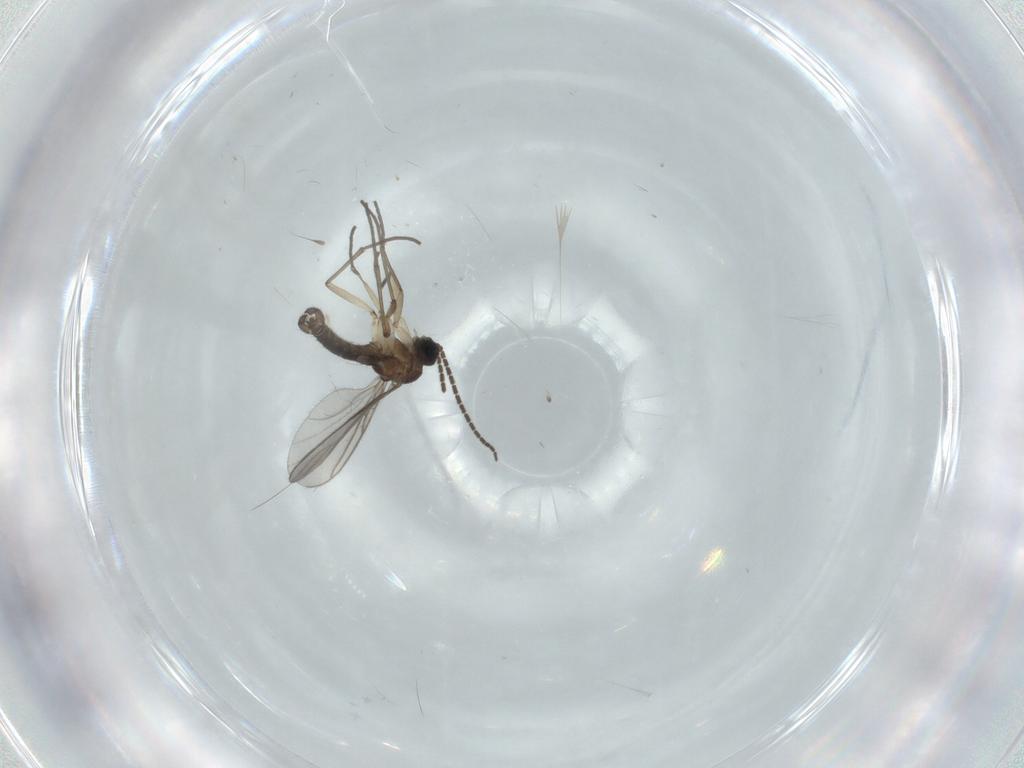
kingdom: Animalia
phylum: Arthropoda
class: Insecta
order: Diptera
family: Sciaridae
